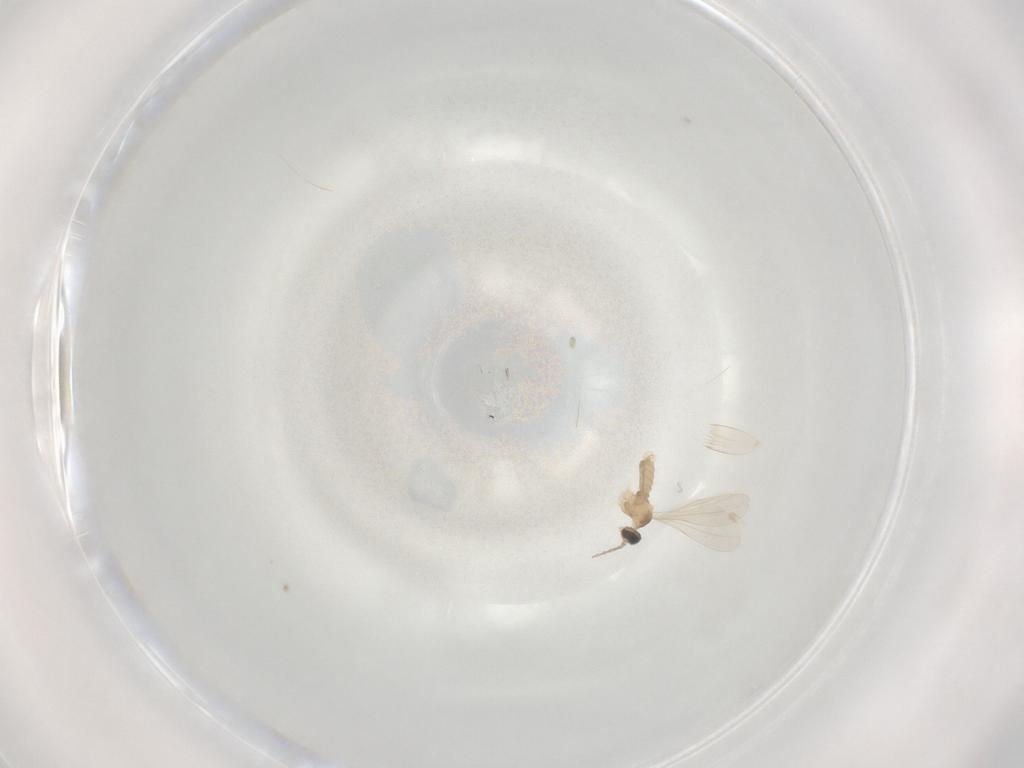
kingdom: Animalia
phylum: Arthropoda
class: Insecta
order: Diptera
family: Cecidomyiidae
